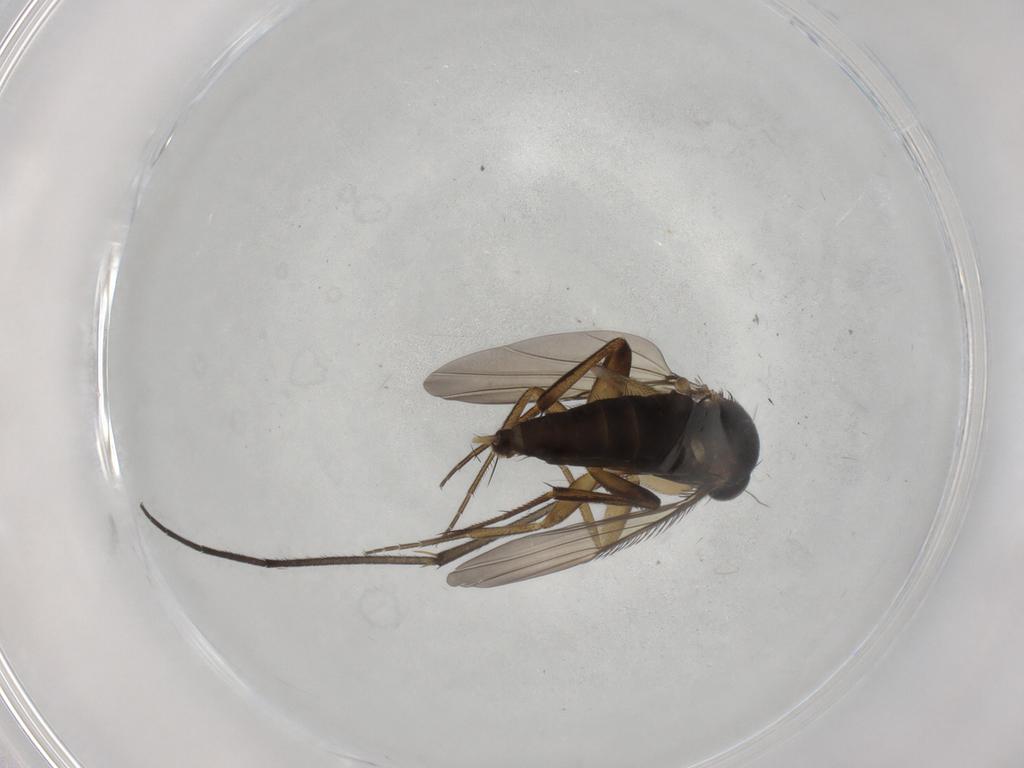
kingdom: Animalia
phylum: Arthropoda
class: Insecta
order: Diptera
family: Phoridae
